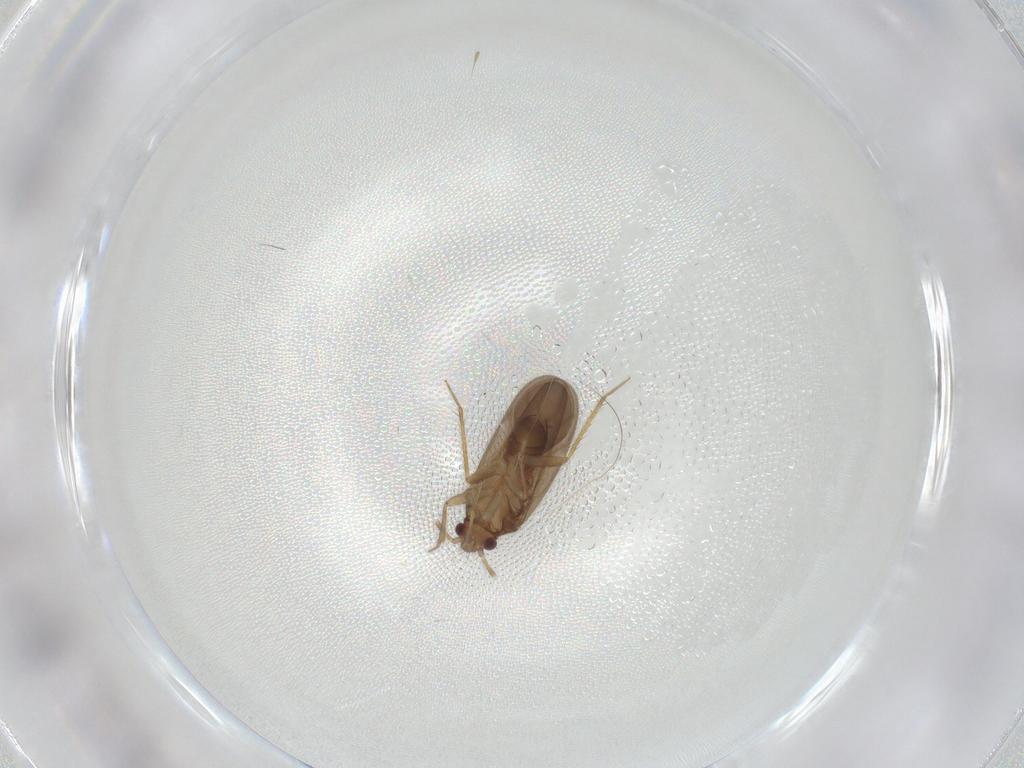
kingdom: Animalia
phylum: Arthropoda
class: Insecta
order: Hemiptera
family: Ceratocombidae
